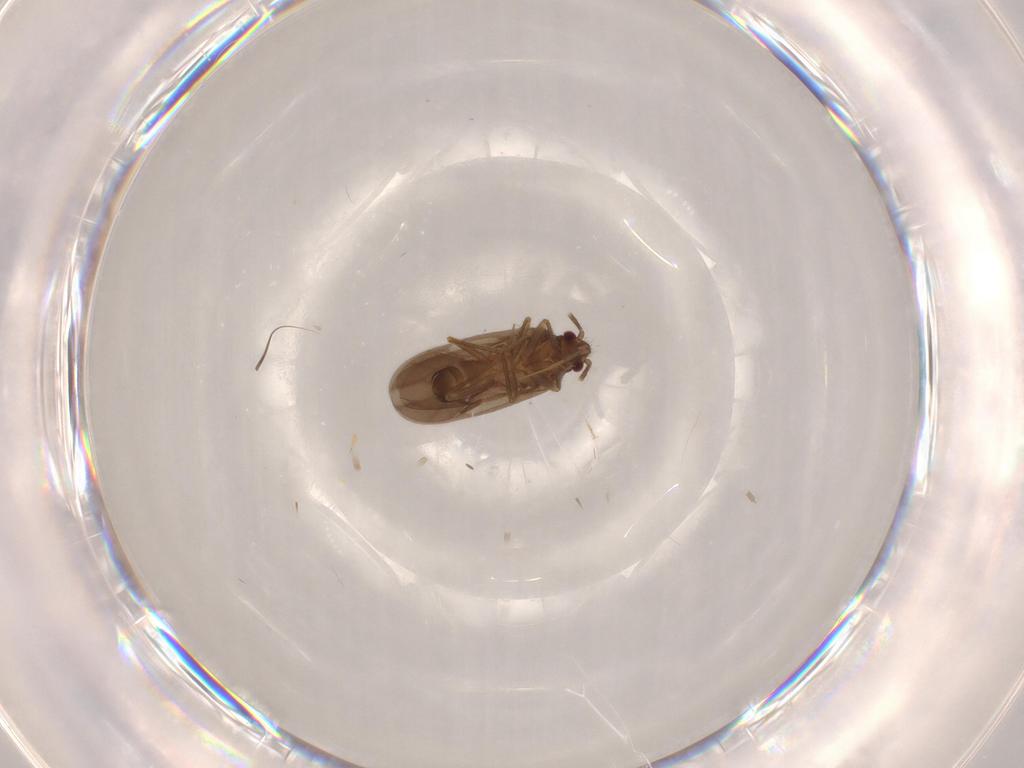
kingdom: Animalia
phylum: Arthropoda
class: Insecta
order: Hemiptera
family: Ceratocombidae
